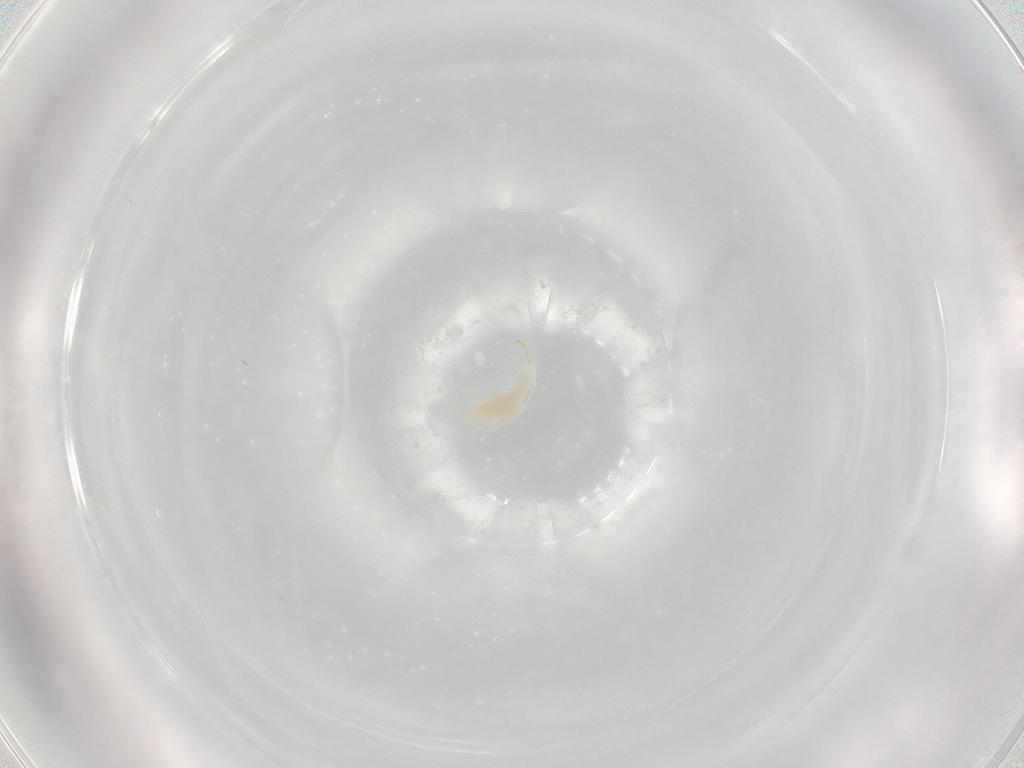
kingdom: Animalia
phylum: Arthropoda
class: Insecta
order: Hymenoptera
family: Ichneumonidae
